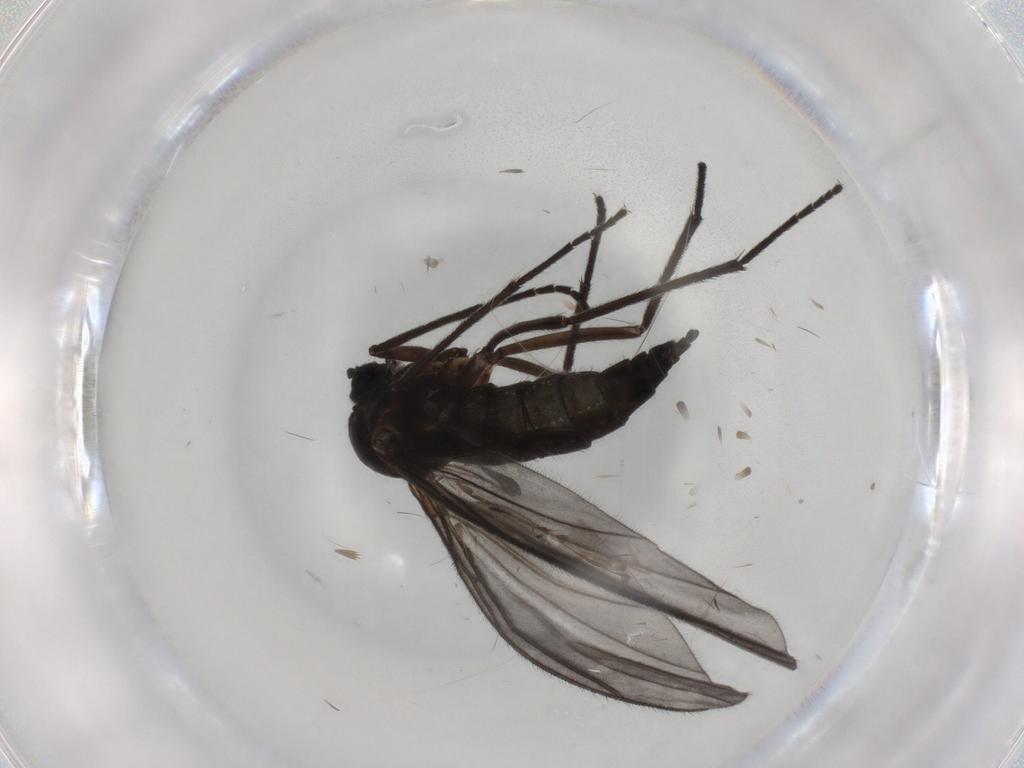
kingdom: Animalia
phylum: Arthropoda
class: Insecta
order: Diptera
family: Sciaridae
